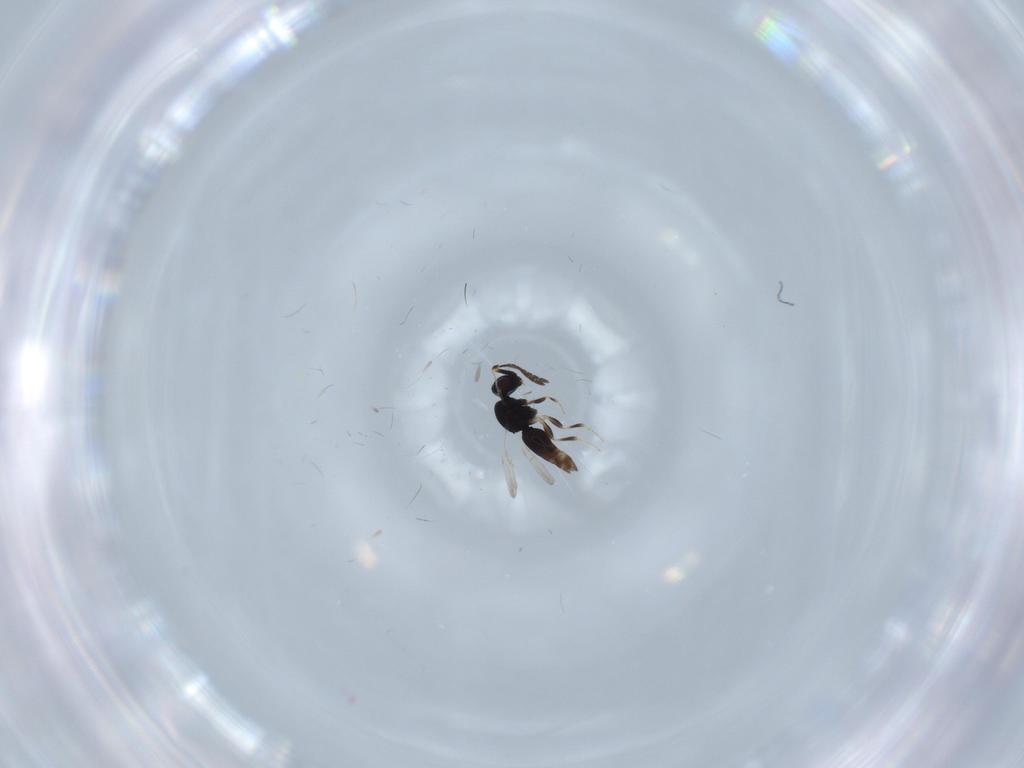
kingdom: Animalia
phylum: Arthropoda
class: Insecta
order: Hymenoptera
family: Ceraphronidae
